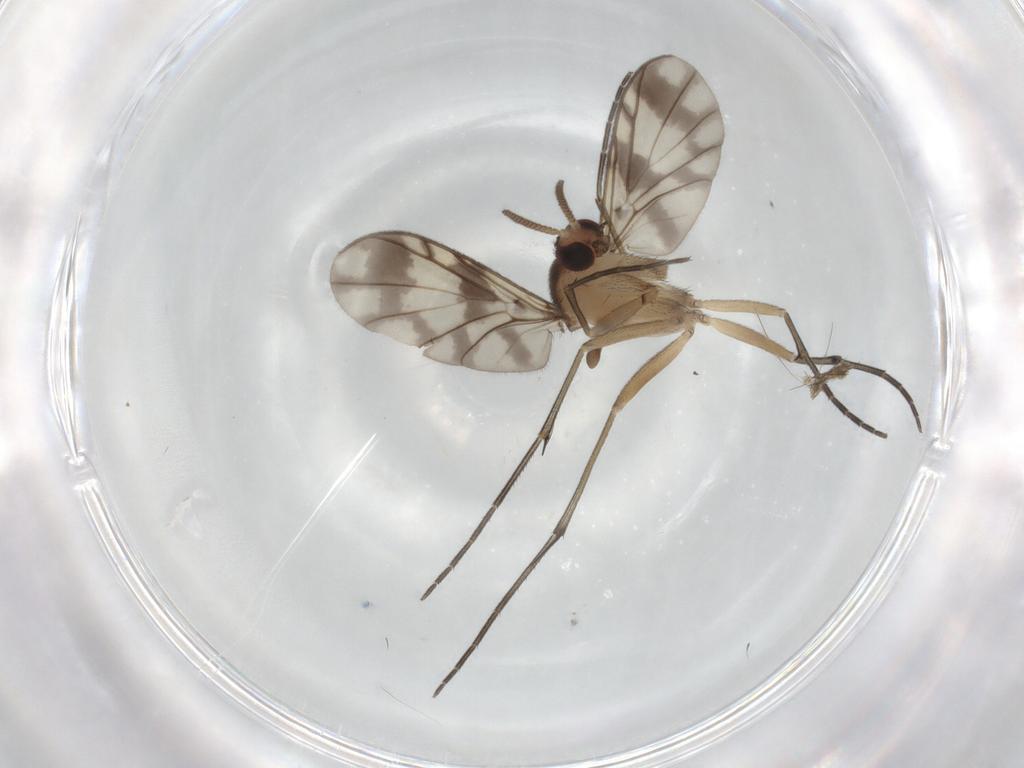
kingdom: Animalia
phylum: Arthropoda
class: Insecta
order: Diptera
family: Keroplatidae
